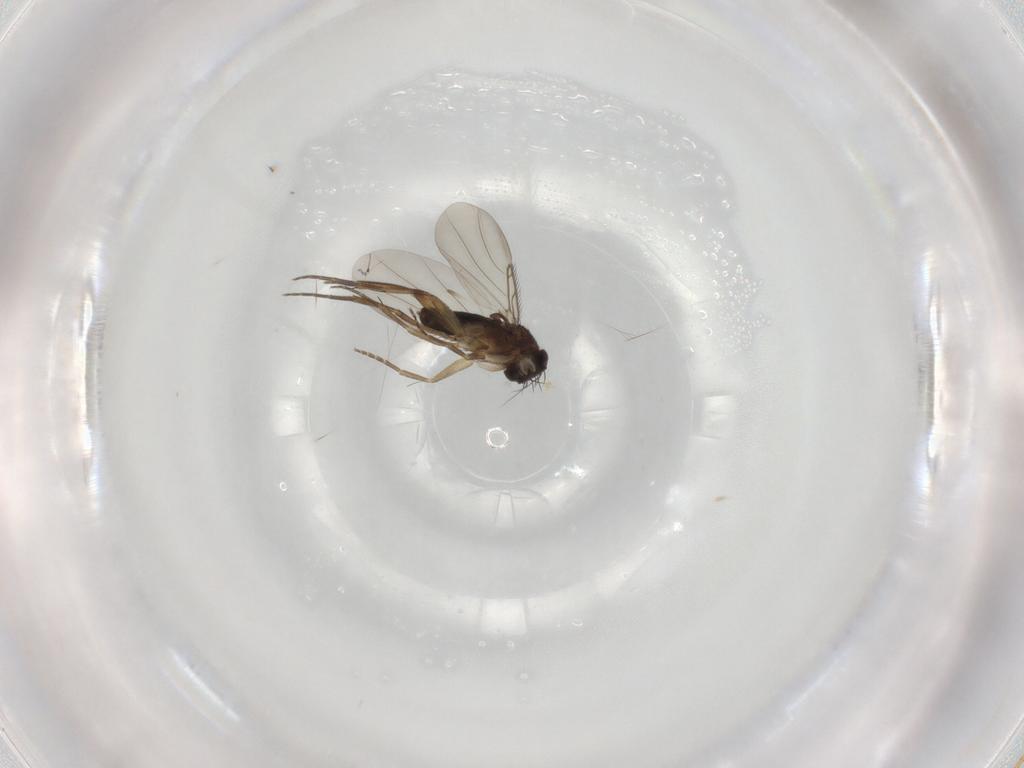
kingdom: Animalia
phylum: Arthropoda
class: Insecta
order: Diptera
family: Phoridae
